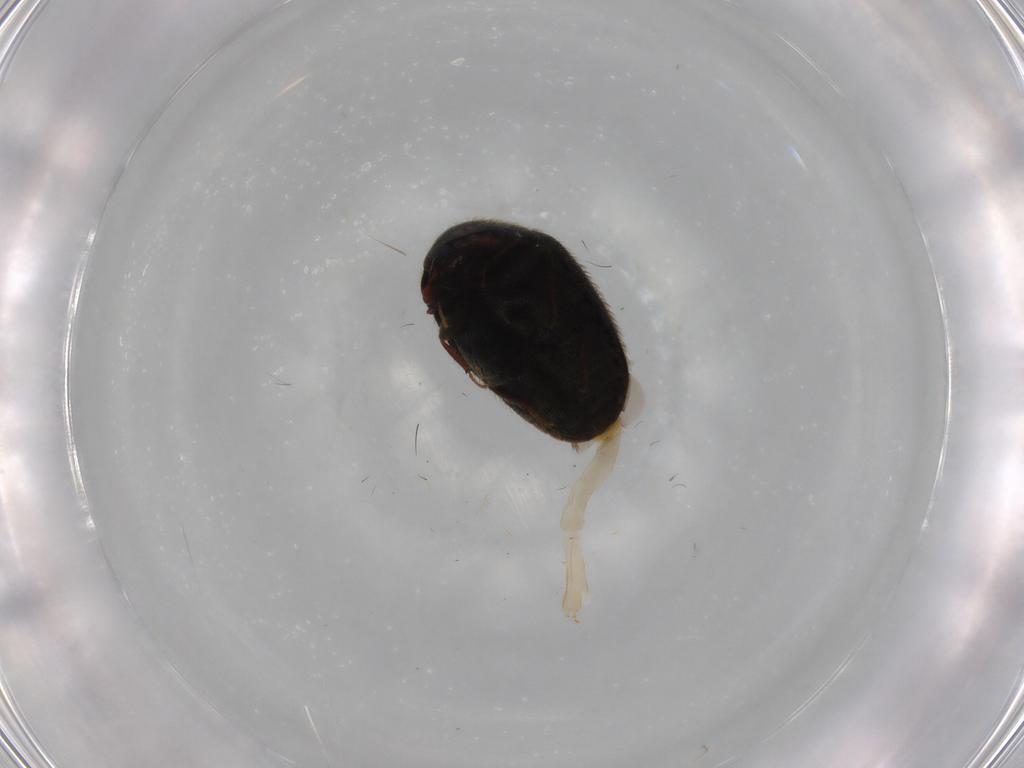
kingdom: Animalia
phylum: Arthropoda
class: Insecta
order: Coleoptera
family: Dermestidae
